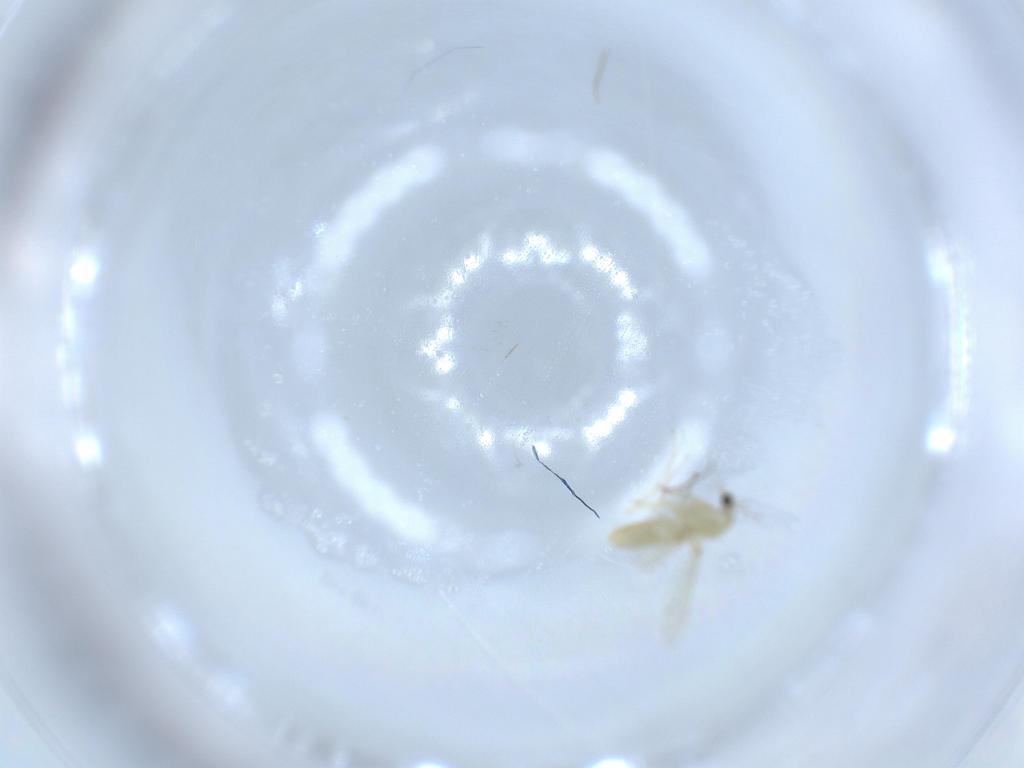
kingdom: Animalia
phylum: Arthropoda
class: Insecta
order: Diptera
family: Chironomidae
